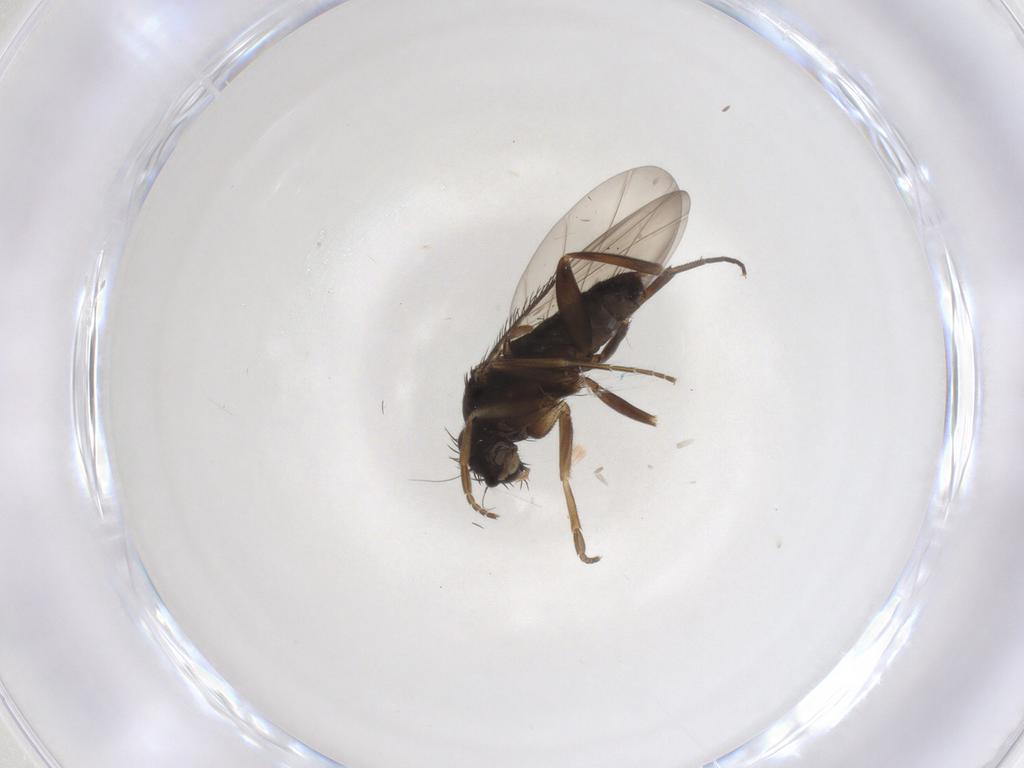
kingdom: Animalia
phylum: Arthropoda
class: Insecta
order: Diptera
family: Phoridae
